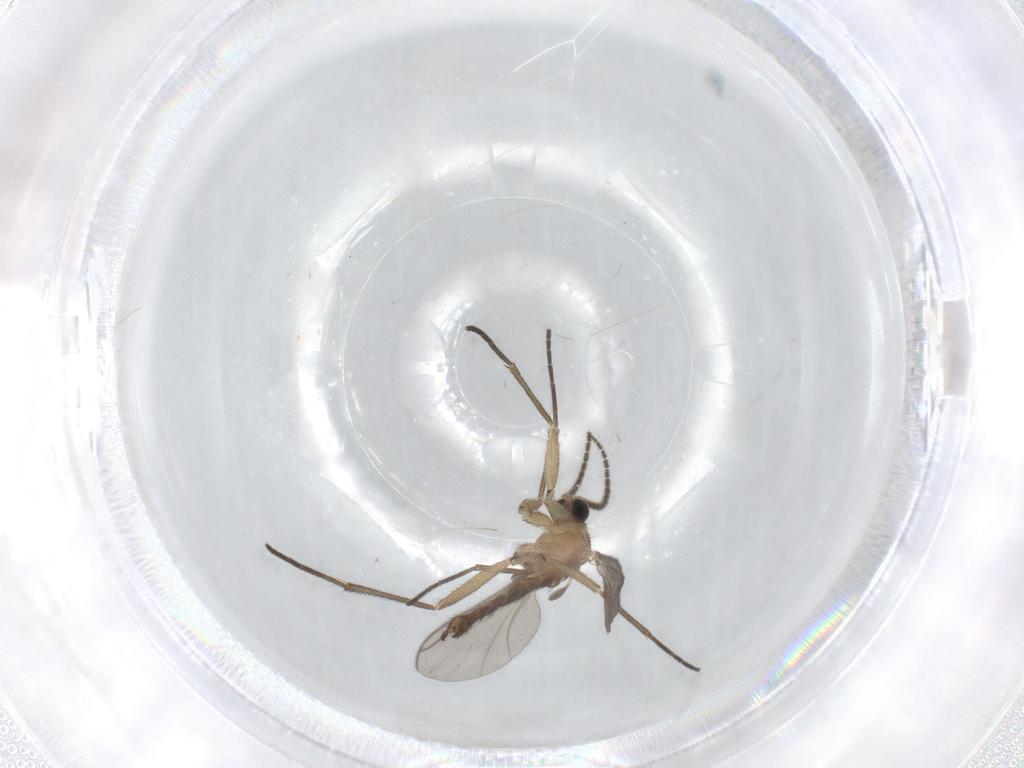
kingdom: Animalia
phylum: Arthropoda
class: Insecta
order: Diptera
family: Sciaridae
